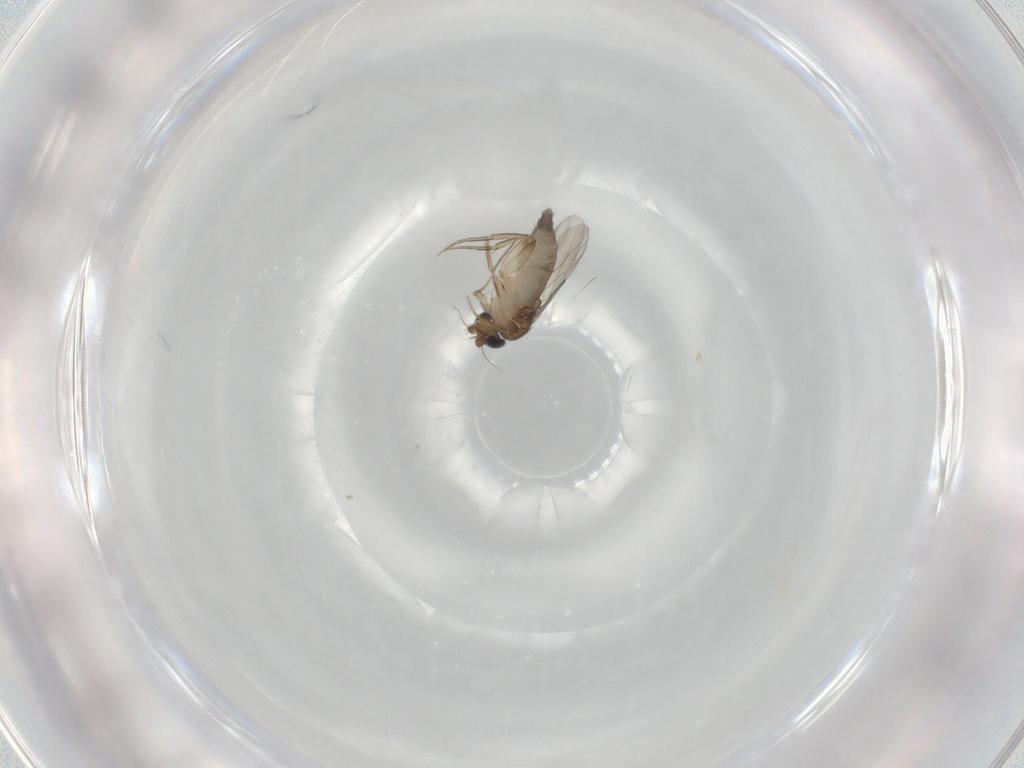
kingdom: Animalia
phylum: Arthropoda
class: Insecta
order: Diptera
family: Phoridae
